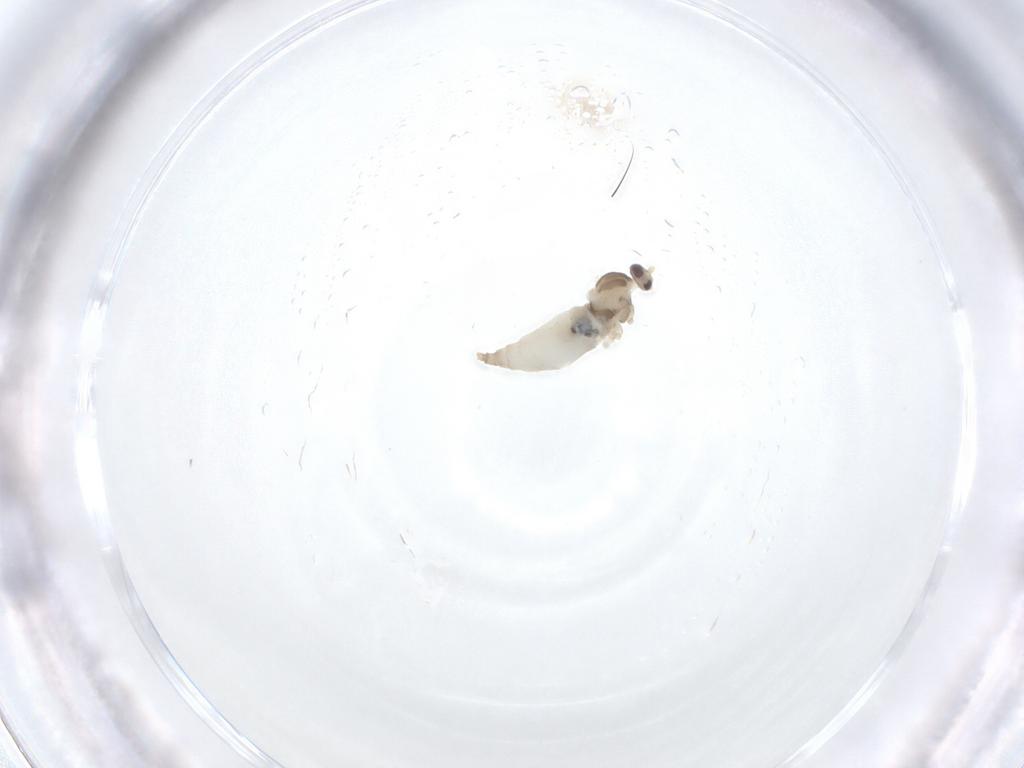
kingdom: Animalia
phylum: Arthropoda
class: Insecta
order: Diptera
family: Cecidomyiidae
